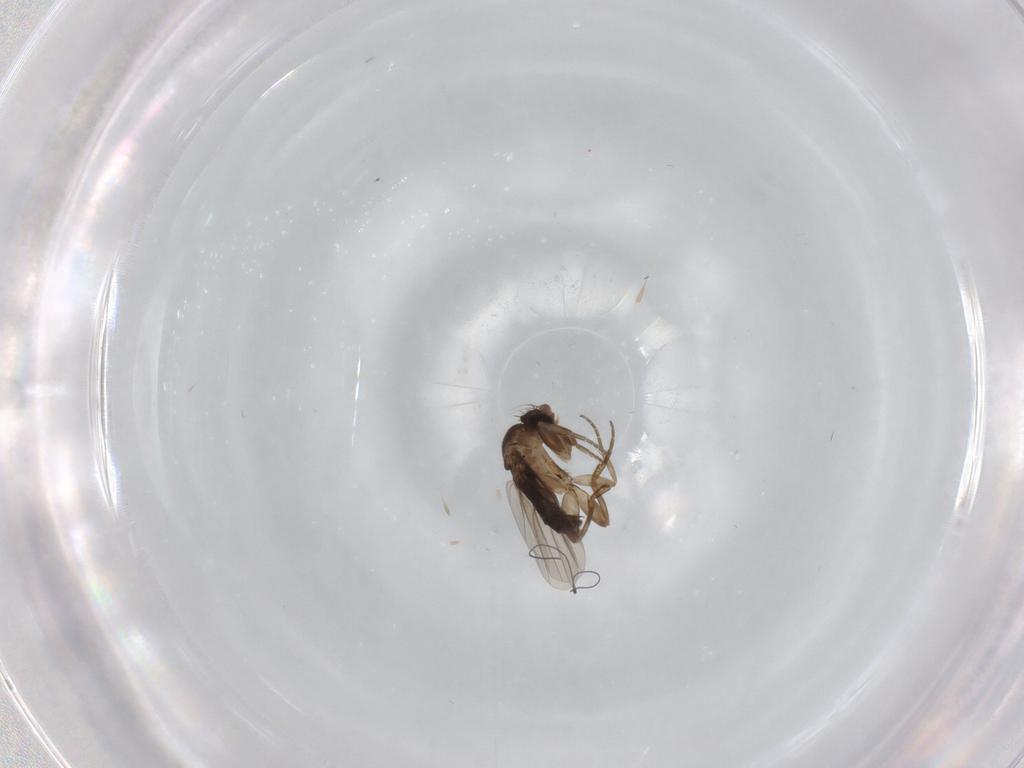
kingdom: Animalia
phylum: Arthropoda
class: Insecta
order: Diptera
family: Phoridae
